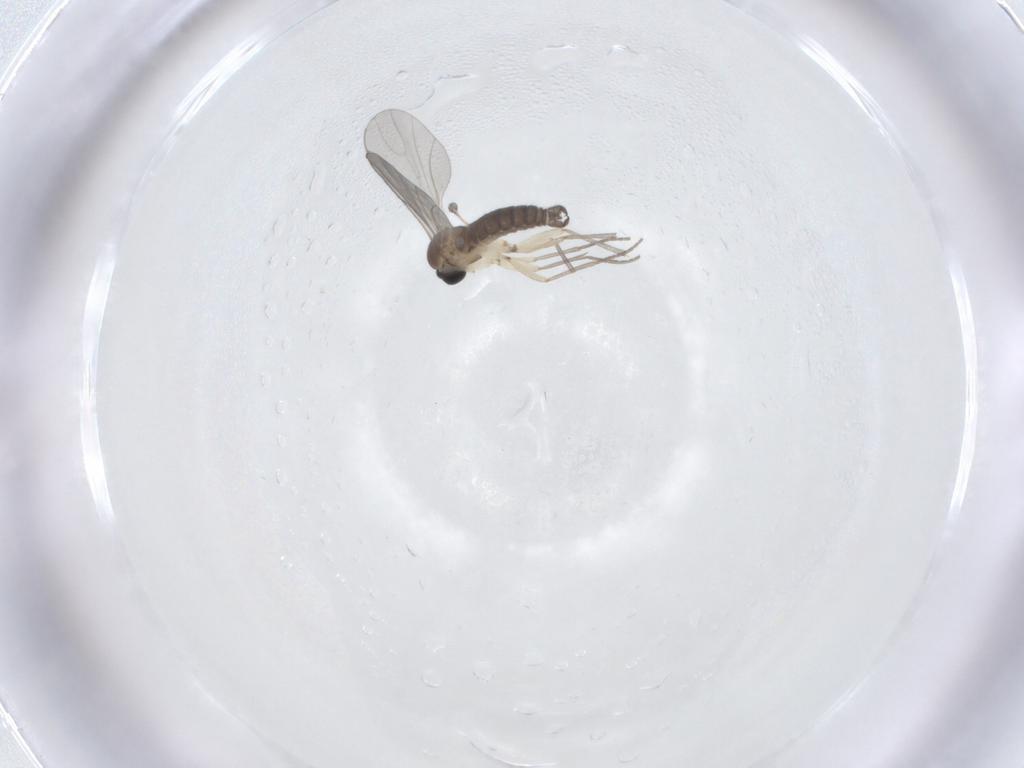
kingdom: Animalia
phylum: Arthropoda
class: Insecta
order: Diptera
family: Sciaridae
